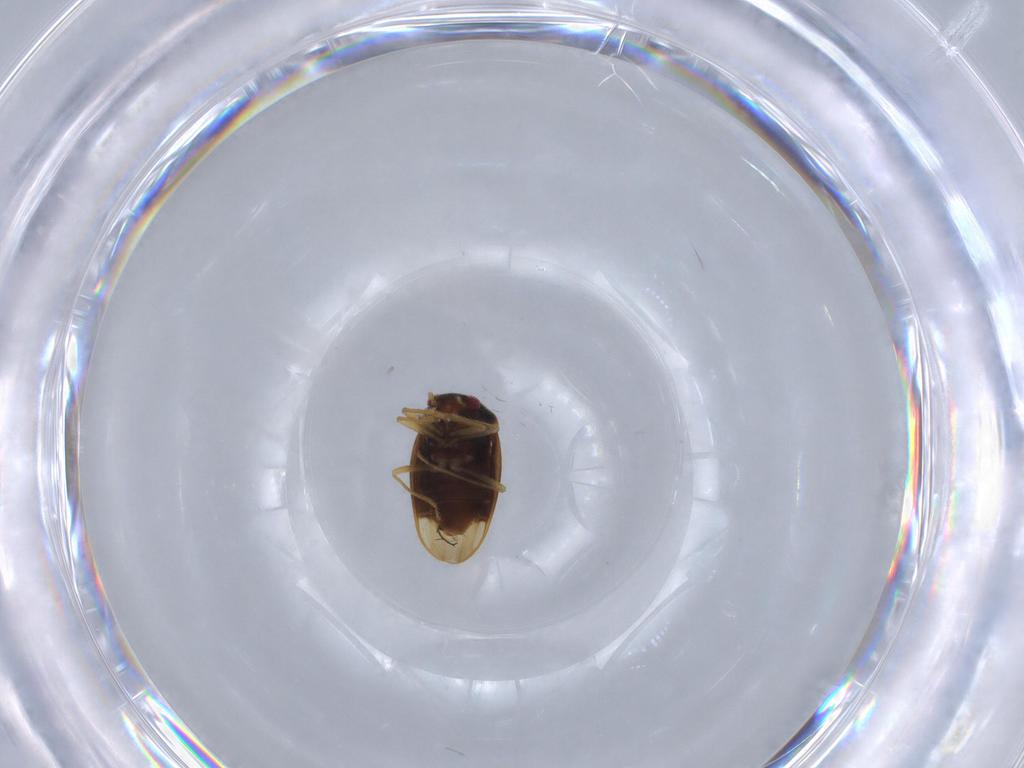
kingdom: Animalia
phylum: Arthropoda
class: Insecta
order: Hemiptera
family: Schizopteridae
